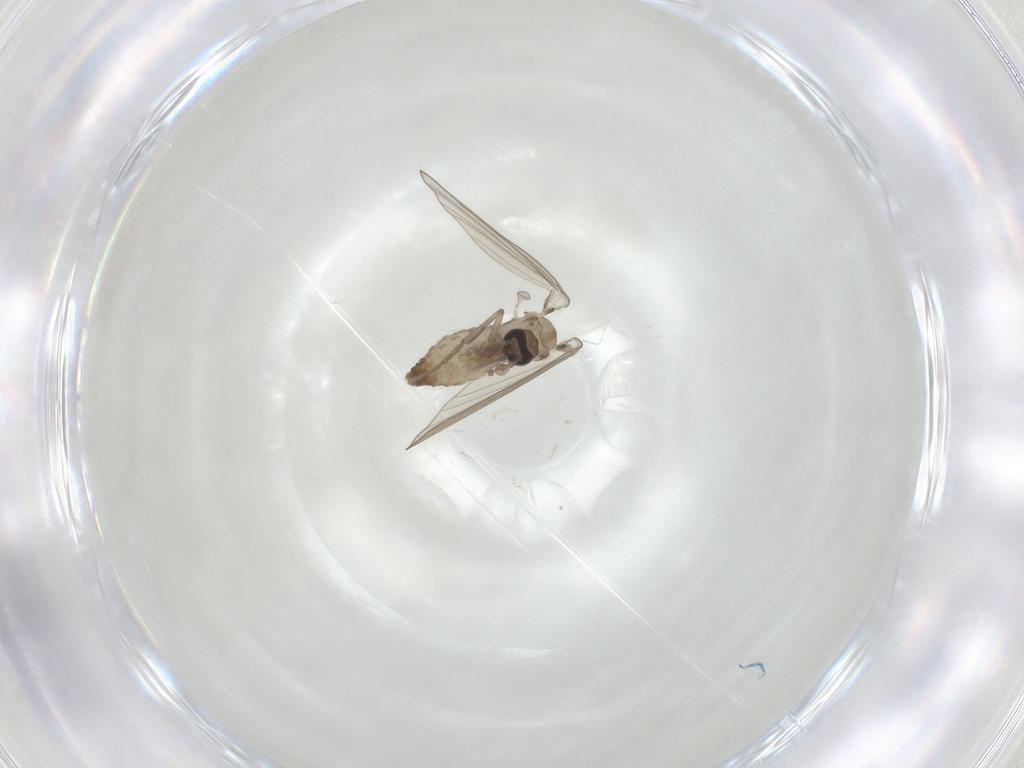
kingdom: Animalia
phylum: Arthropoda
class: Insecta
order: Diptera
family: Psychodidae
